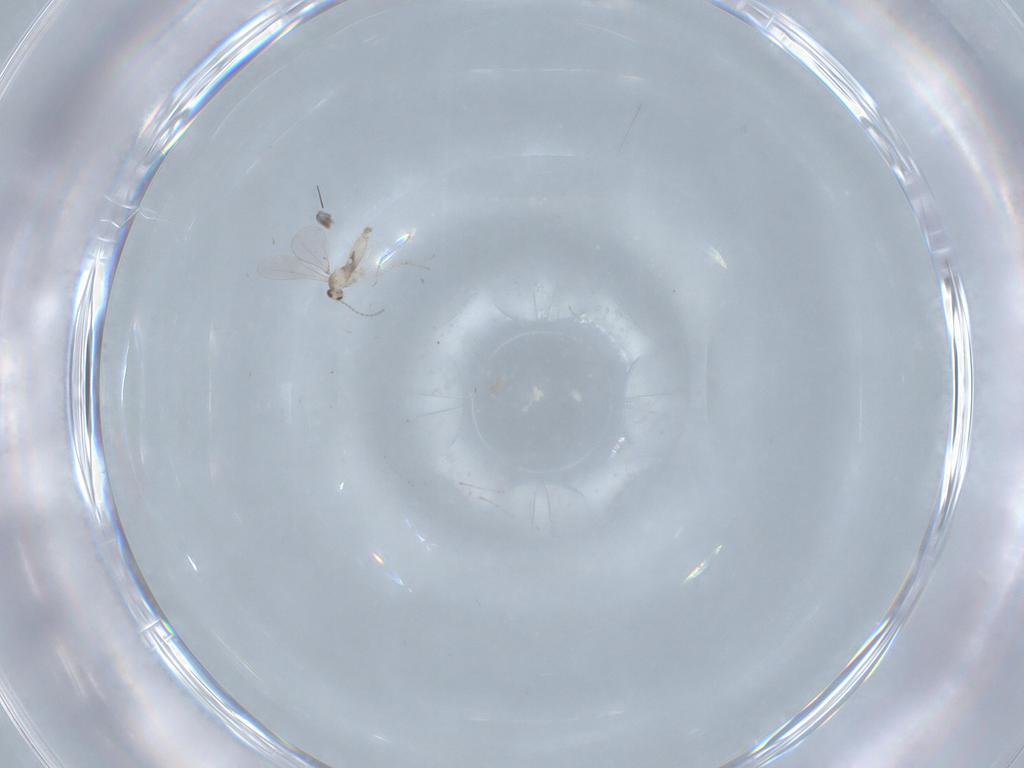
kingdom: Animalia
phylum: Arthropoda
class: Insecta
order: Diptera
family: Cecidomyiidae
